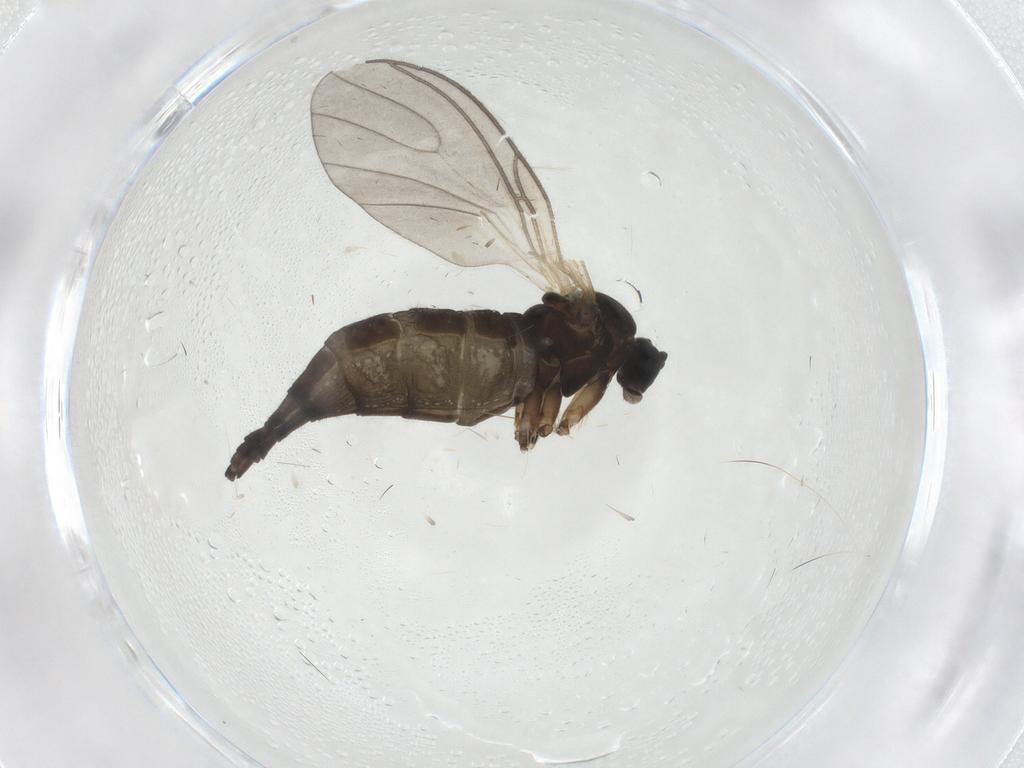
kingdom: Animalia
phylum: Arthropoda
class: Insecta
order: Diptera
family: Sciaridae
